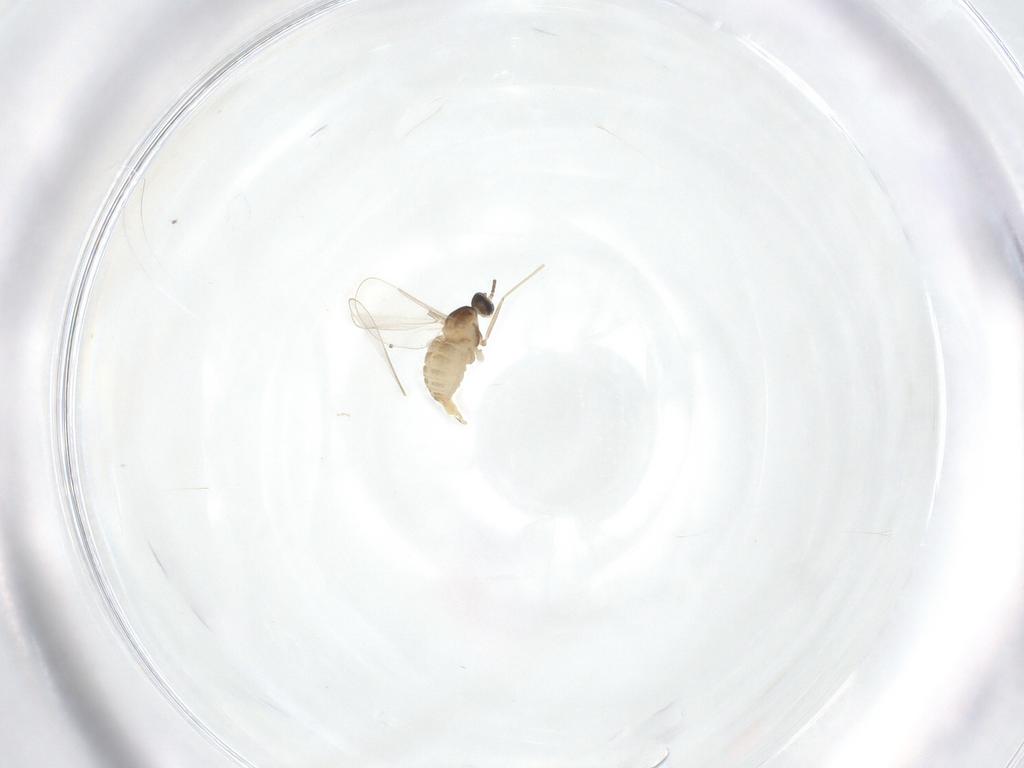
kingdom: Animalia
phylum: Arthropoda
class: Insecta
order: Diptera
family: Cecidomyiidae
